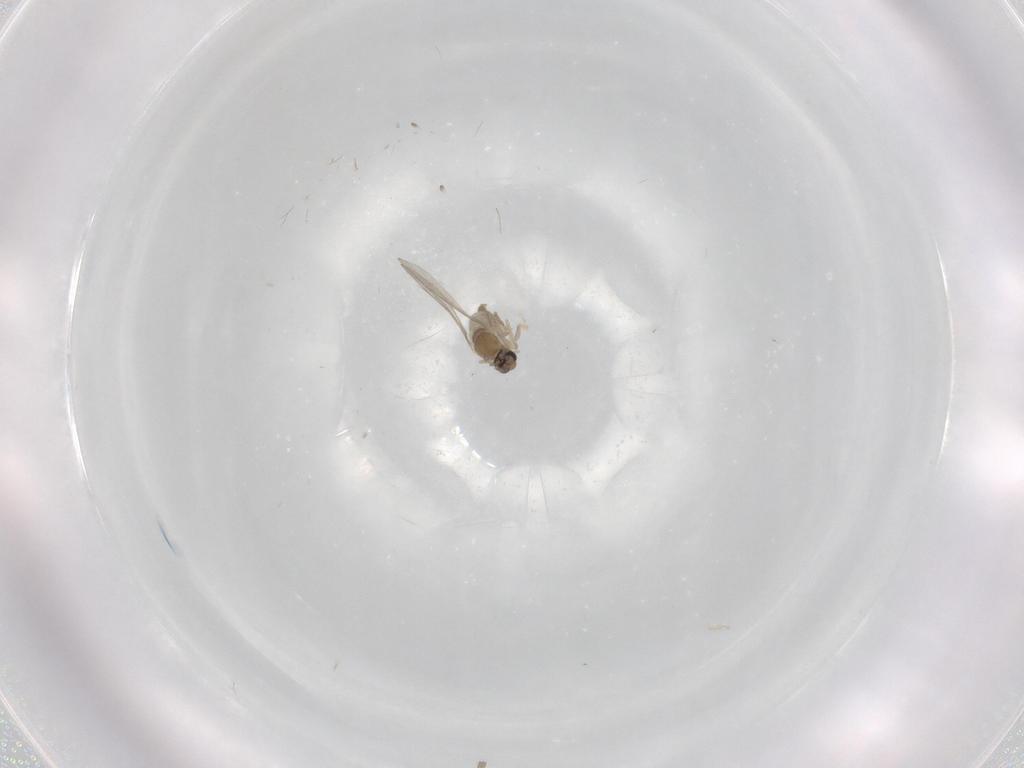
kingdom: Animalia
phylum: Arthropoda
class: Insecta
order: Diptera
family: Cecidomyiidae
